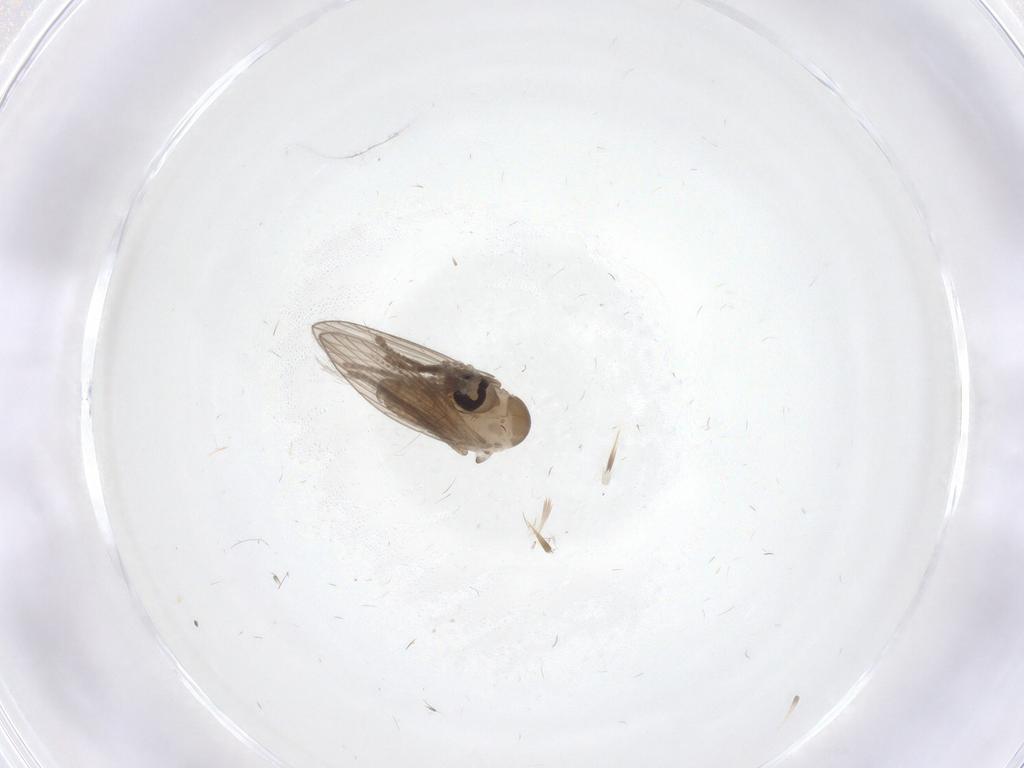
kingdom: Animalia
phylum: Arthropoda
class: Insecta
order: Diptera
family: Psychodidae
